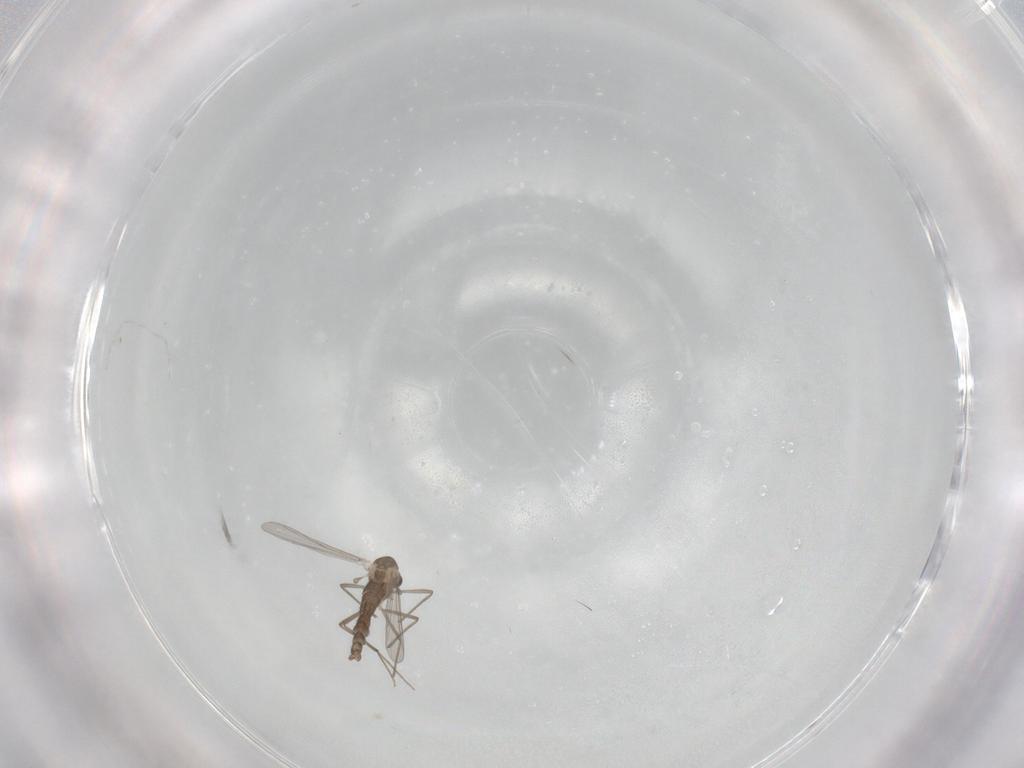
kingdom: Animalia
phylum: Arthropoda
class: Insecta
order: Diptera
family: Chironomidae
